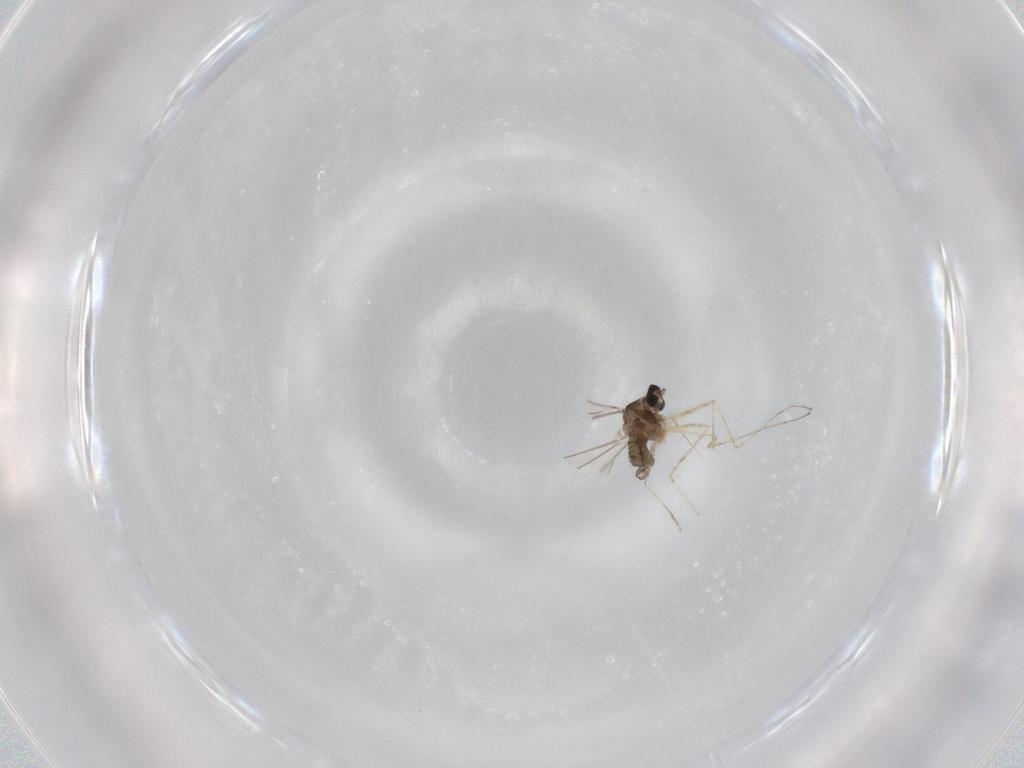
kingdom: Animalia
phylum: Arthropoda
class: Insecta
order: Diptera
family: Cecidomyiidae
